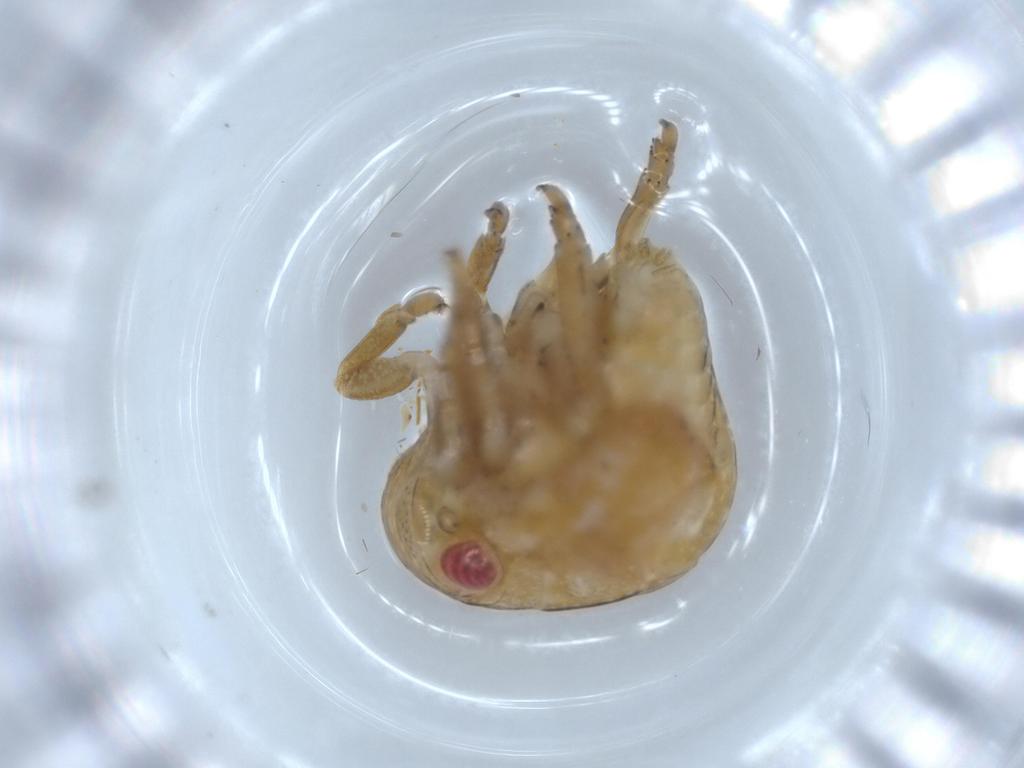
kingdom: Animalia
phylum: Arthropoda
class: Insecta
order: Hemiptera
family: Acanaloniidae
